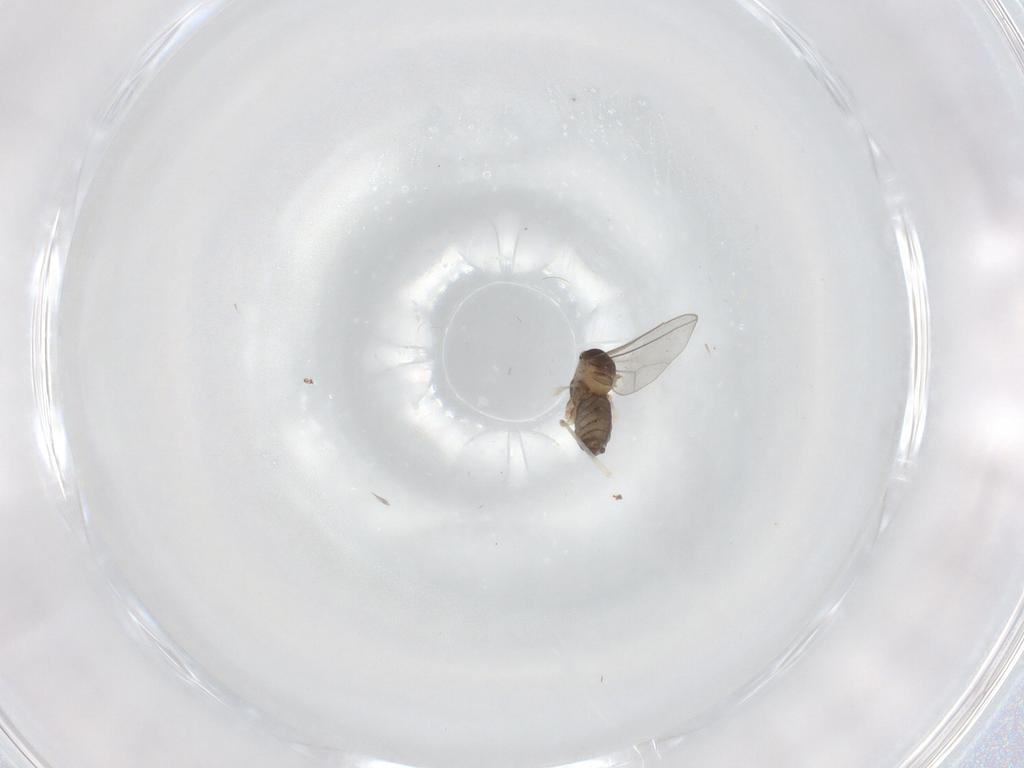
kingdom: Animalia
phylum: Arthropoda
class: Insecta
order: Diptera
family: Cecidomyiidae
